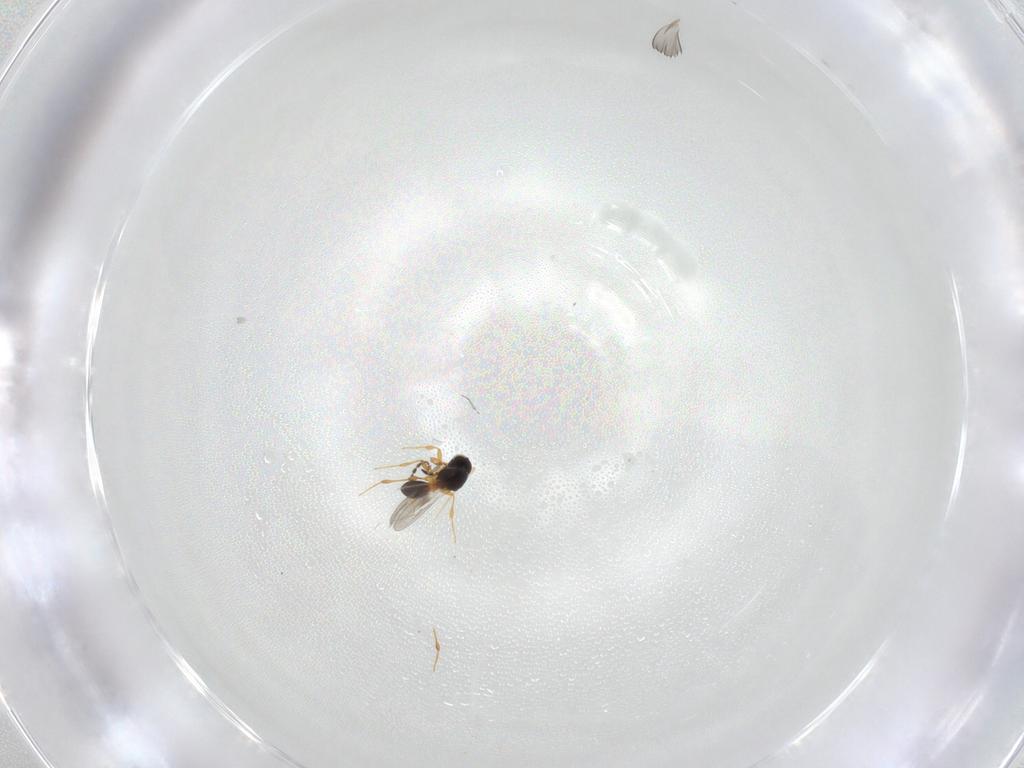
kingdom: Animalia
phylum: Arthropoda
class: Insecta
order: Hymenoptera
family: Platygastridae
